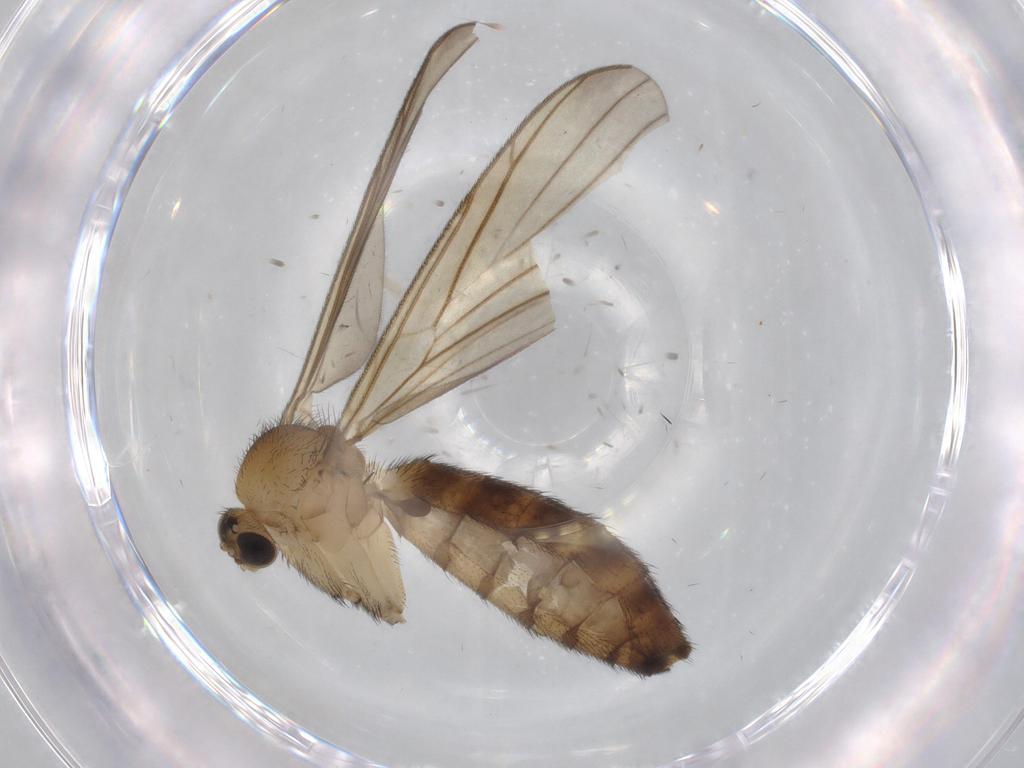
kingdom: Animalia
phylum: Arthropoda
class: Insecta
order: Diptera
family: Keroplatidae
